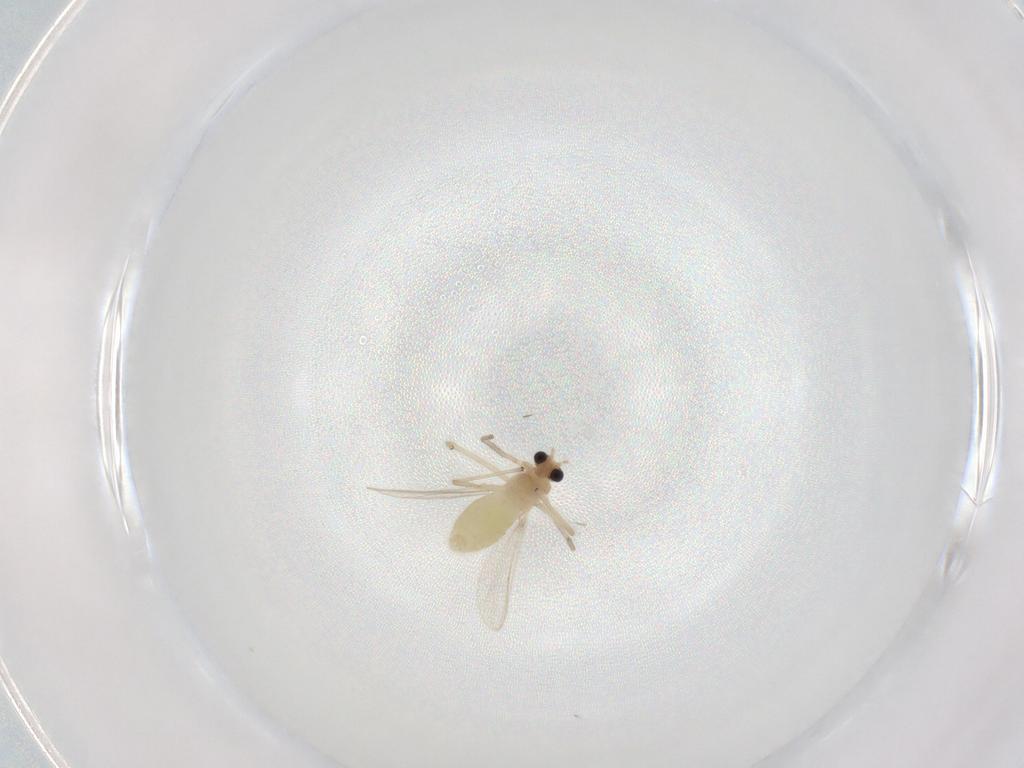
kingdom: Animalia
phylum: Arthropoda
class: Insecta
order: Diptera
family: Chironomidae
